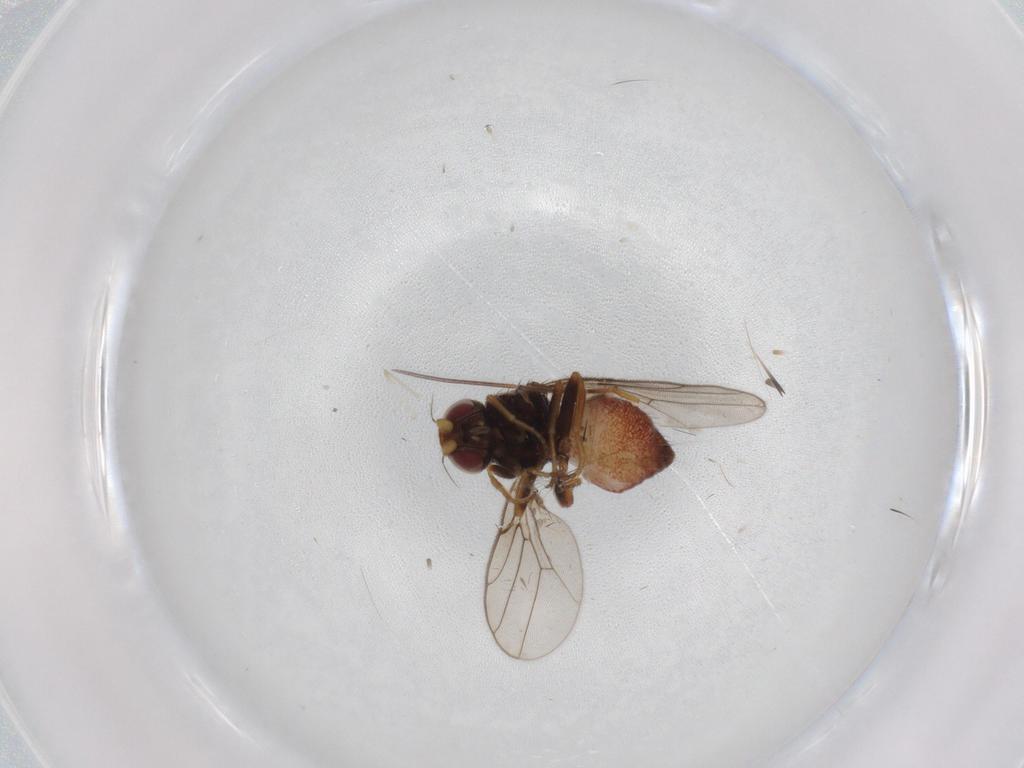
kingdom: Animalia
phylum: Arthropoda
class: Insecta
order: Diptera
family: Chloropidae
